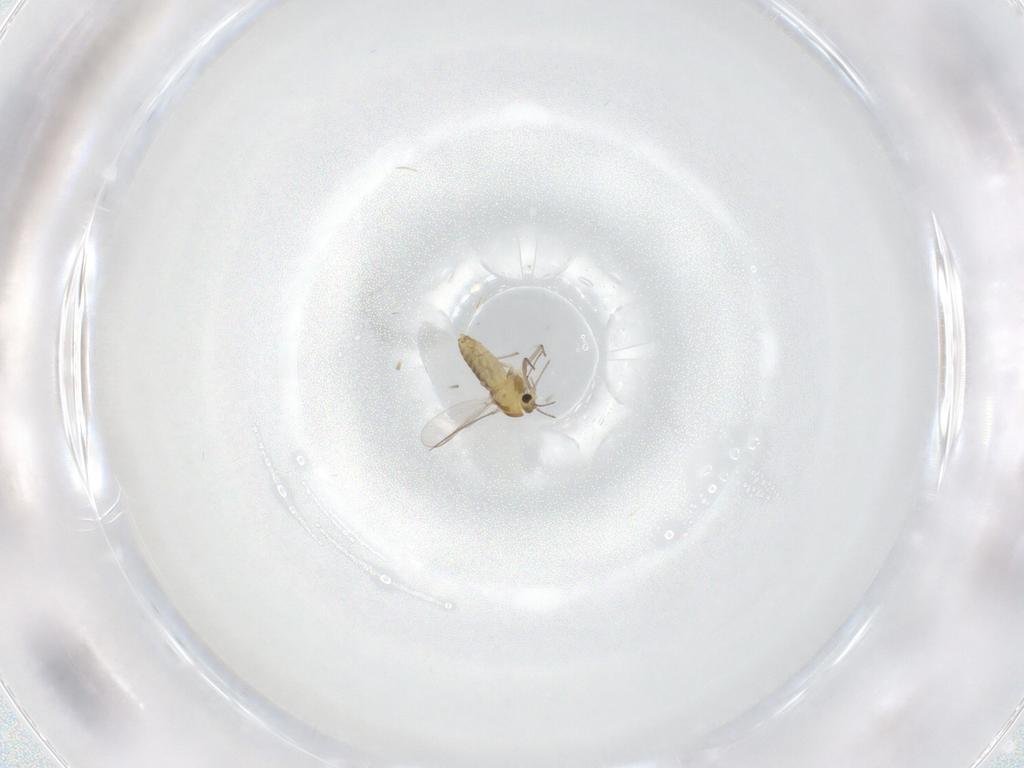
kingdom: Animalia
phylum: Arthropoda
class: Insecta
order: Diptera
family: Chironomidae
